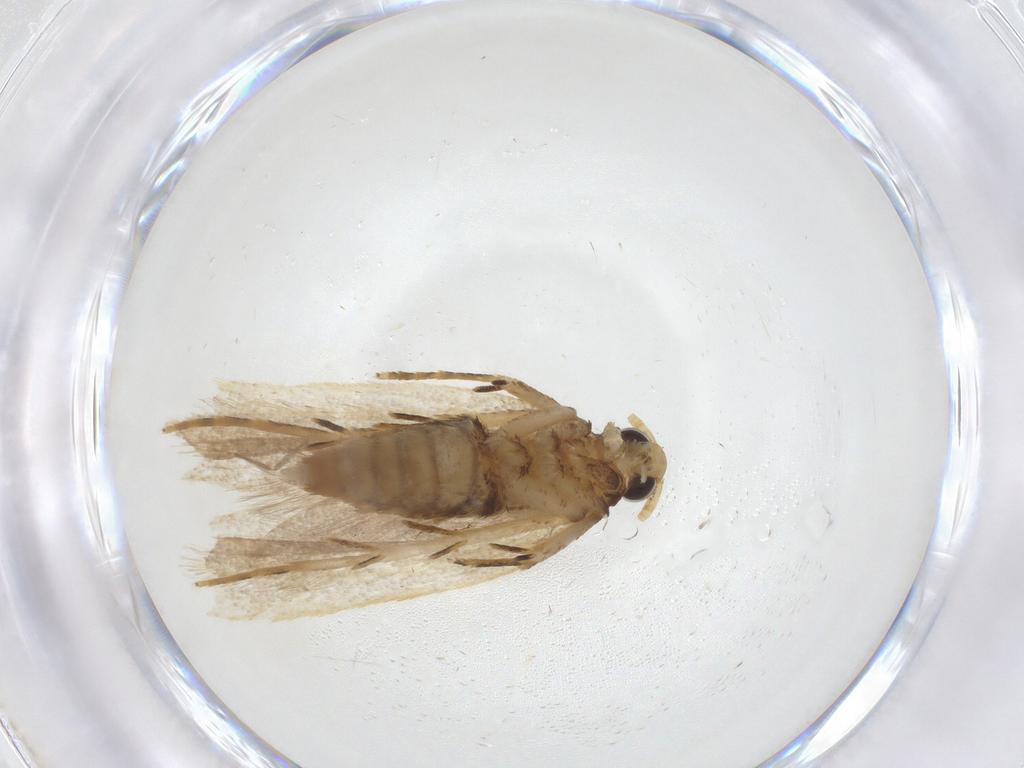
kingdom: Animalia
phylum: Arthropoda
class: Insecta
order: Lepidoptera
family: Lecithoceridae
